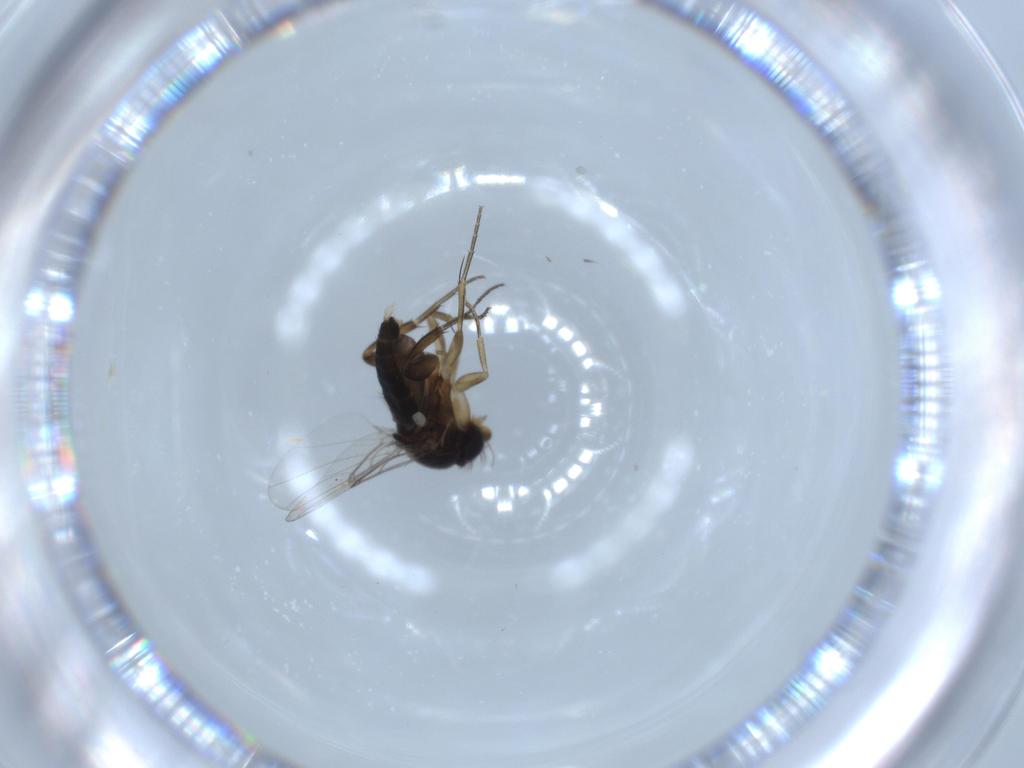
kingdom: Animalia
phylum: Arthropoda
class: Insecta
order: Diptera
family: Phoridae
